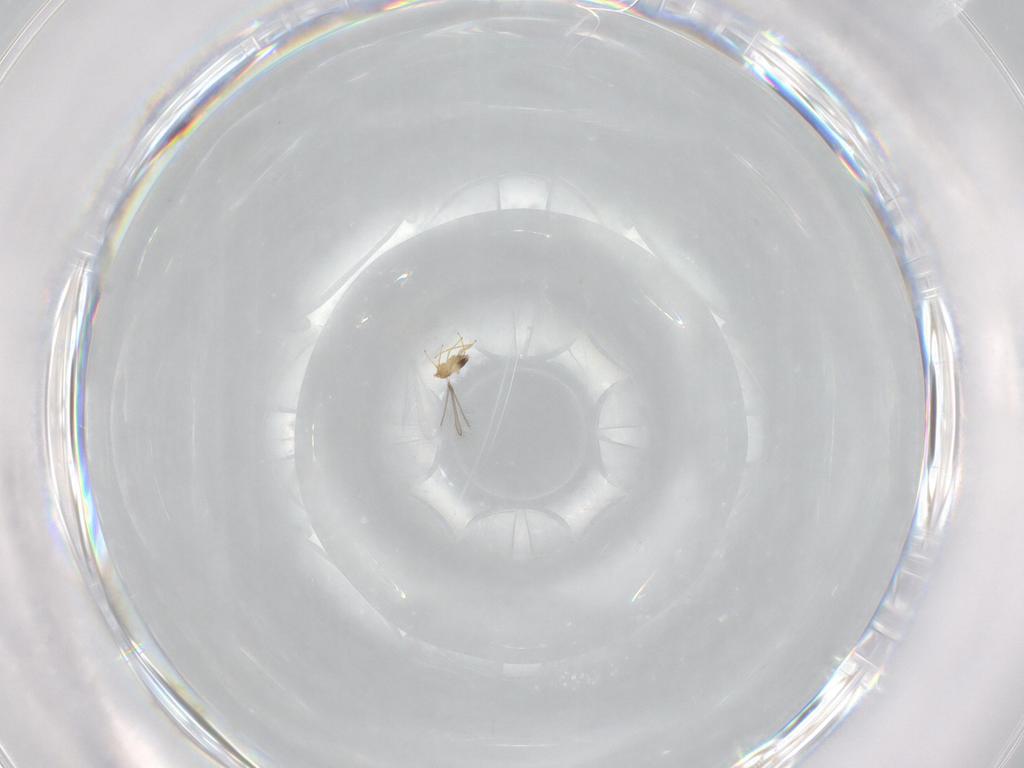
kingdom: Animalia
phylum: Arthropoda
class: Insecta
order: Hymenoptera
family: Mymaridae
